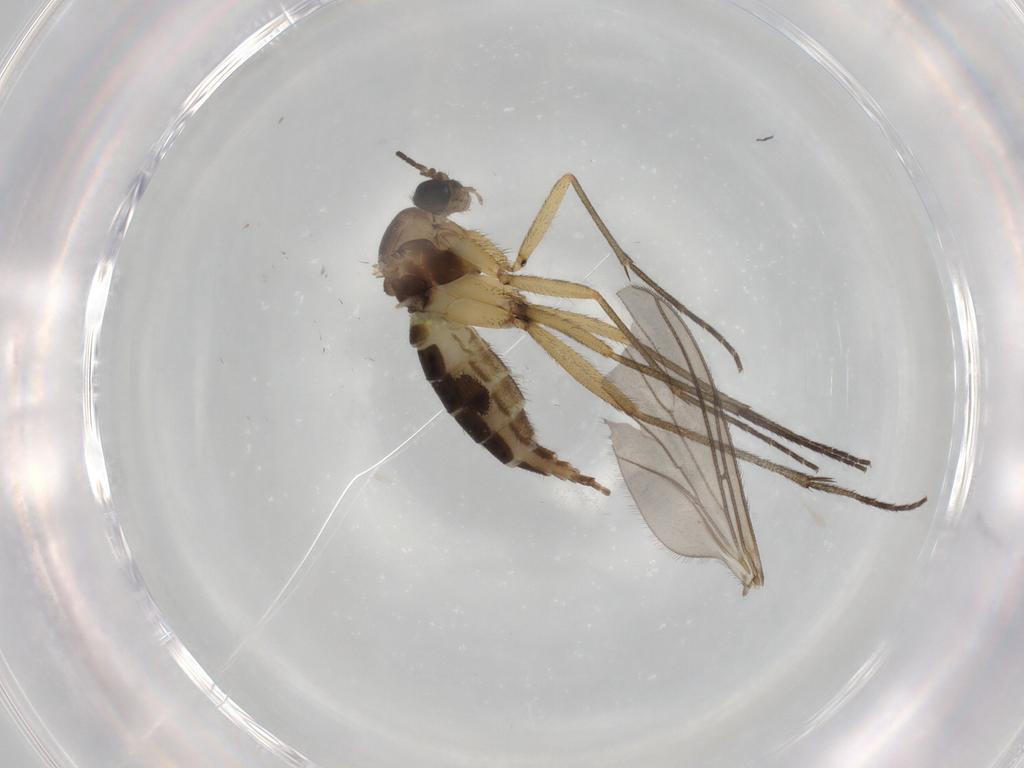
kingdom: Animalia
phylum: Arthropoda
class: Insecta
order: Diptera
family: Sciaridae
